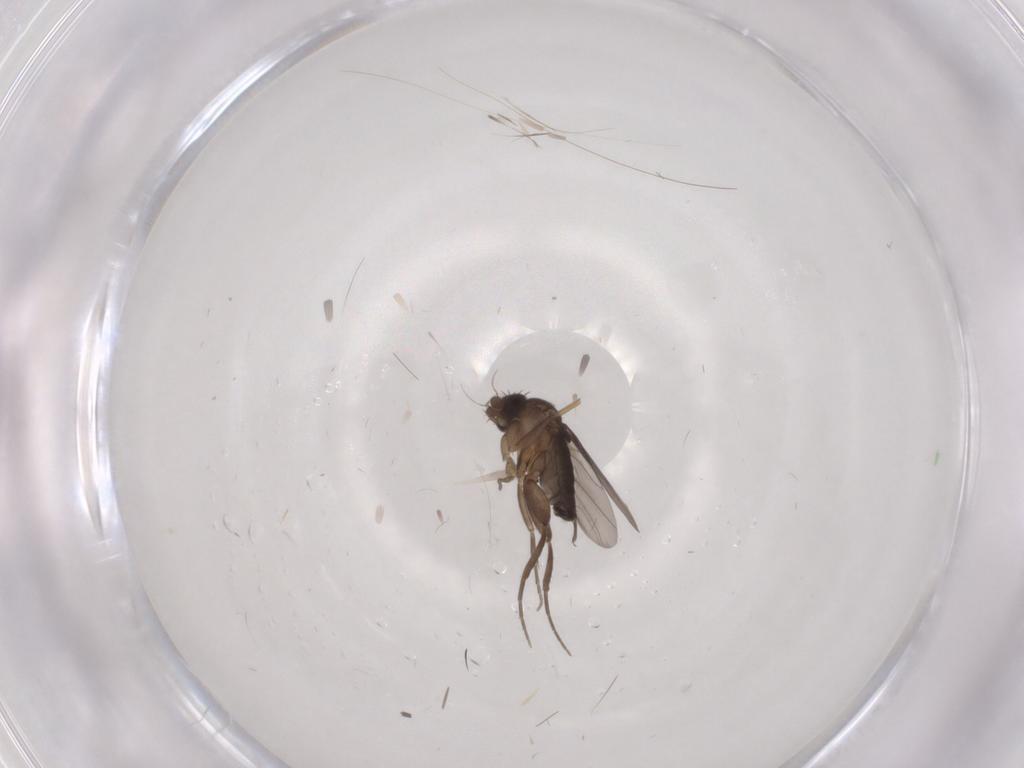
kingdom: Animalia
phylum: Arthropoda
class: Insecta
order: Diptera
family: Phoridae
